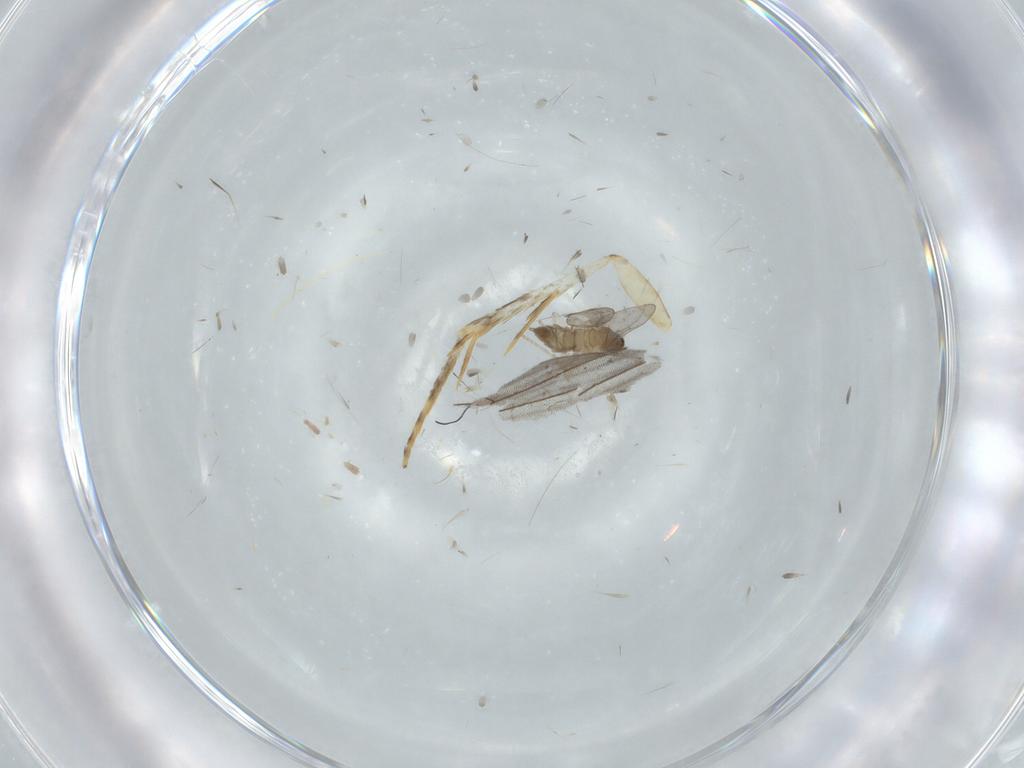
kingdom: Animalia
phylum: Arthropoda
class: Insecta
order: Diptera
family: Cecidomyiidae
